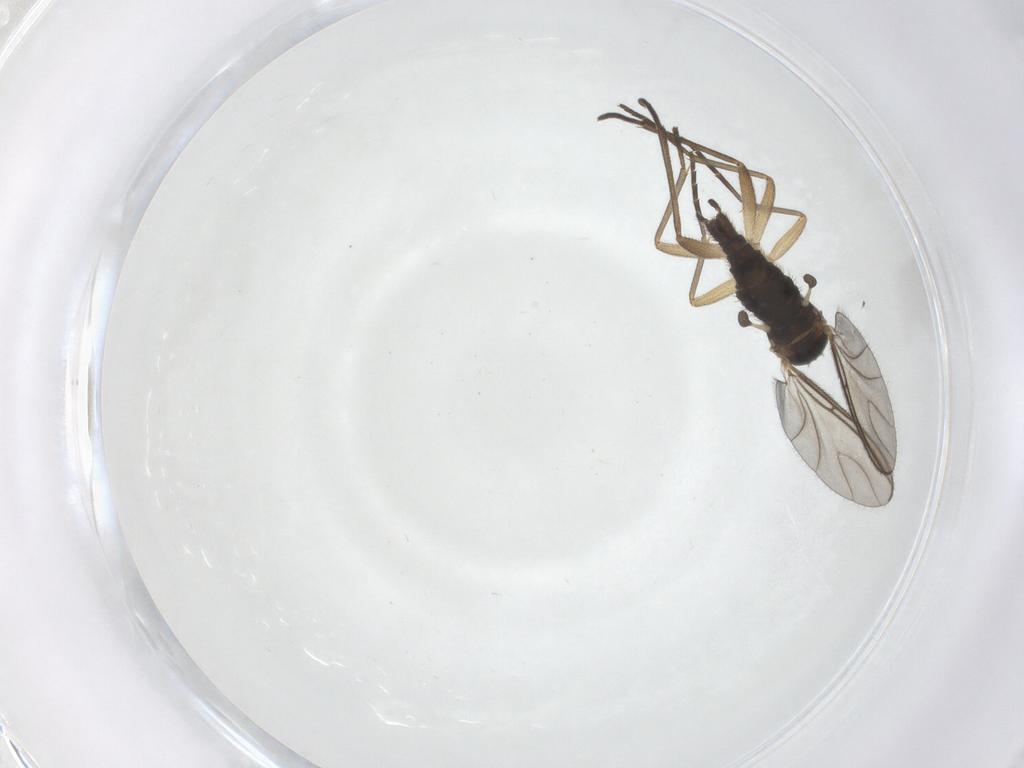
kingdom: Animalia
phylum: Arthropoda
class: Insecta
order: Diptera
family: Sciaridae
